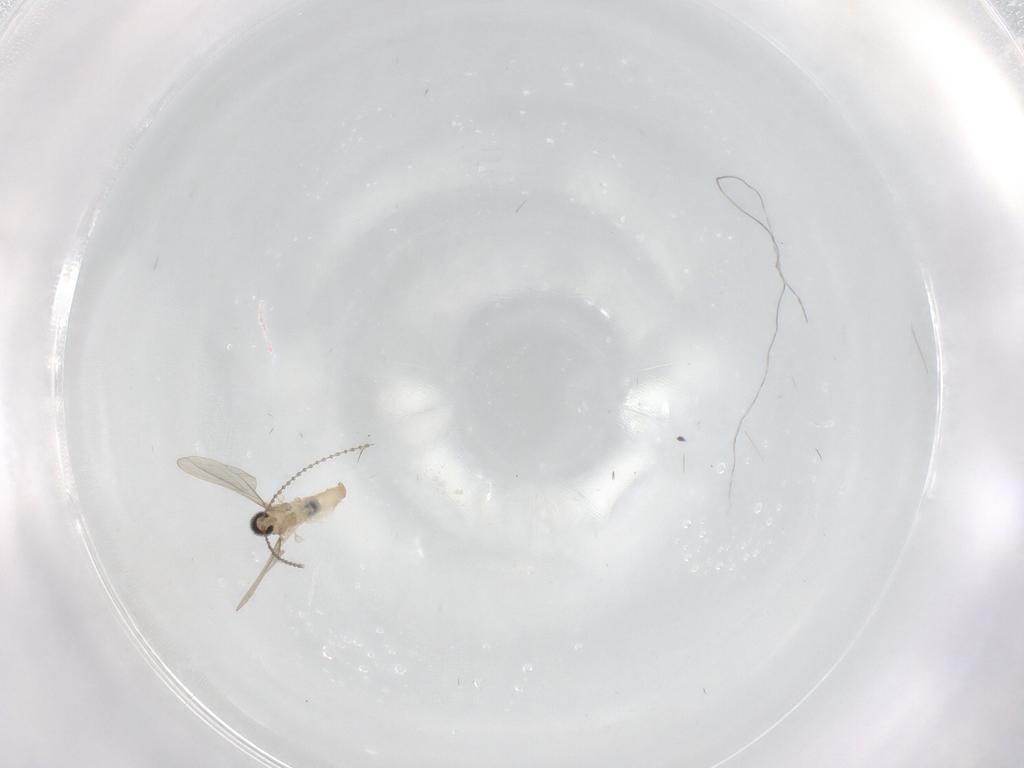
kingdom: Animalia
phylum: Arthropoda
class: Insecta
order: Diptera
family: Cecidomyiidae
